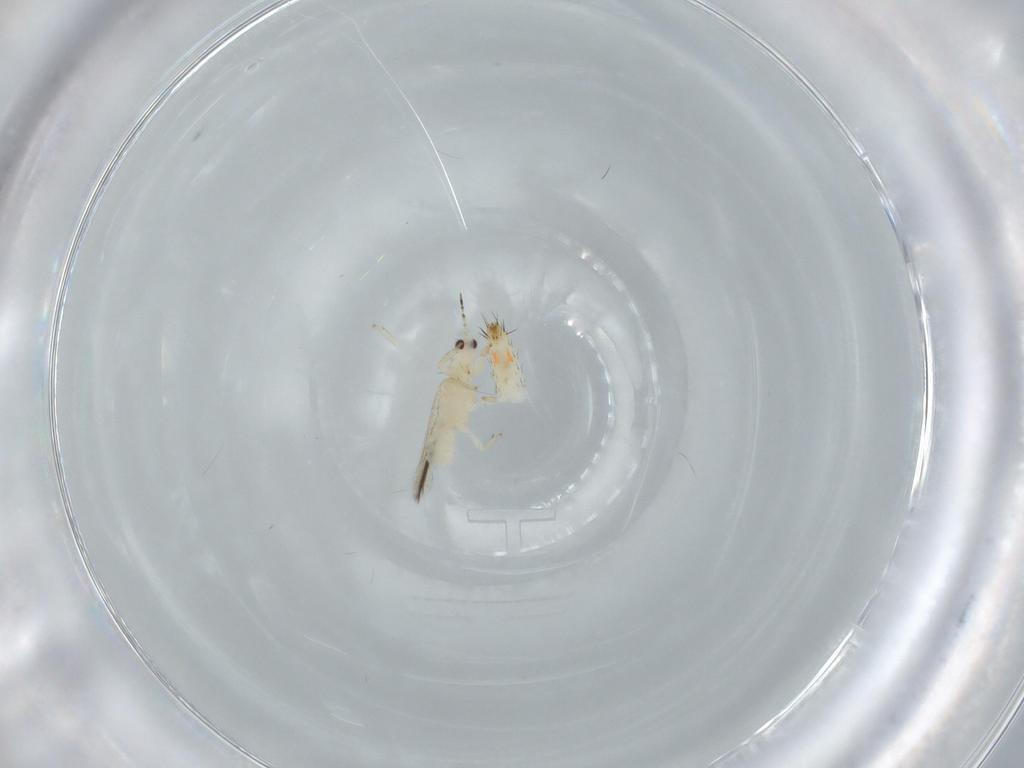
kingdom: Animalia
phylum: Arthropoda
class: Insecta
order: Thysanoptera
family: Thripidae
